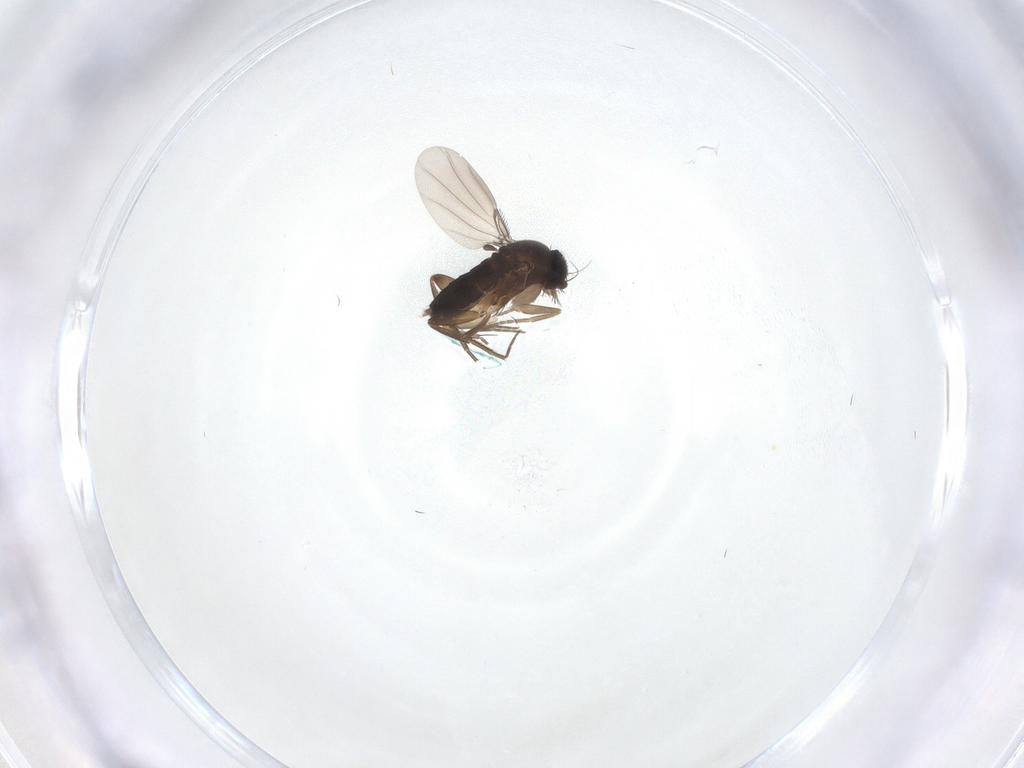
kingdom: Animalia
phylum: Arthropoda
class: Insecta
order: Diptera
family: Phoridae
